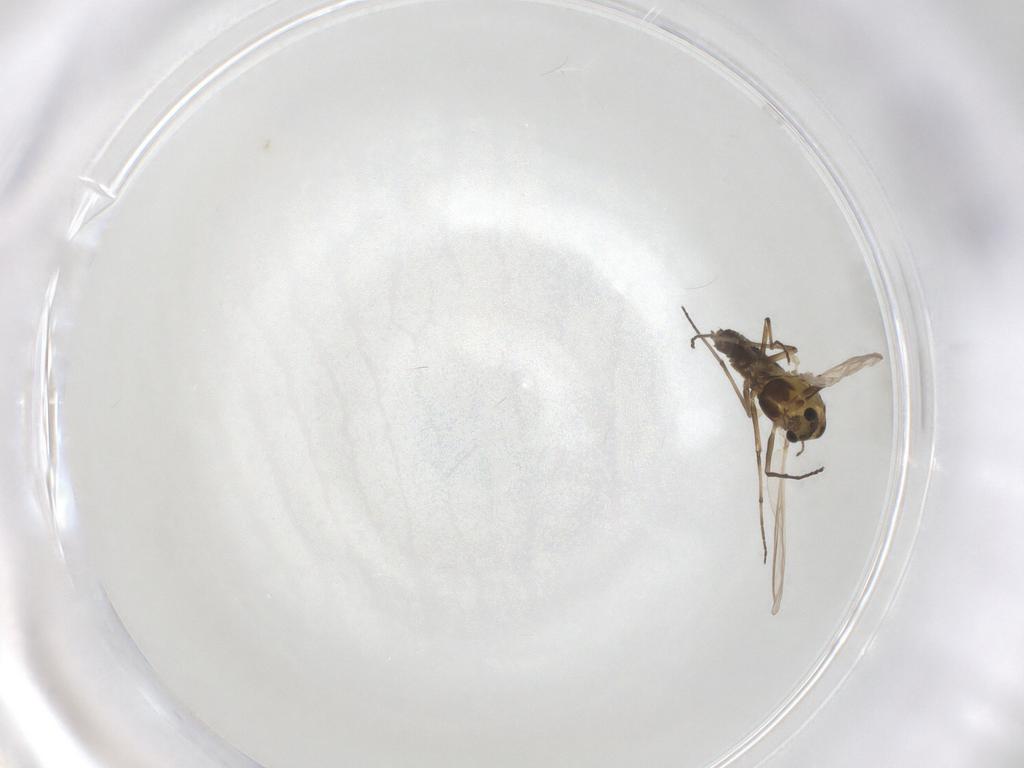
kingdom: Animalia
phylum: Arthropoda
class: Insecta
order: Diptera
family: Chironomidae
